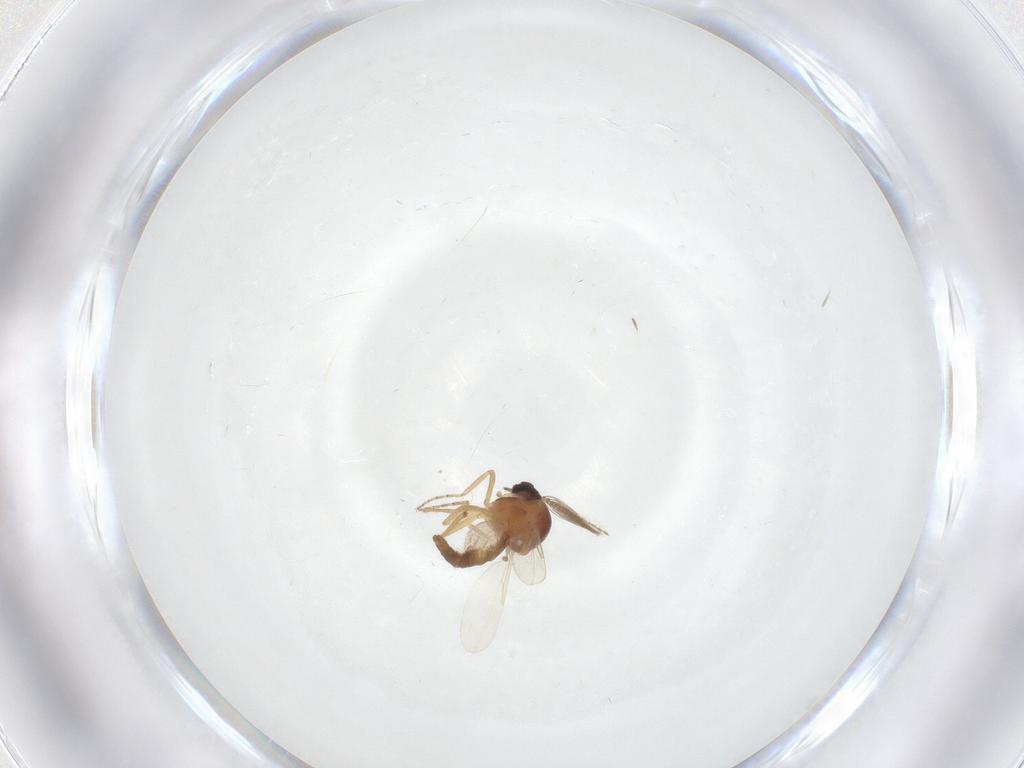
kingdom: Animalia
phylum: Arthropoda
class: Insecta
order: Diptera
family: Ceratopogonidae
